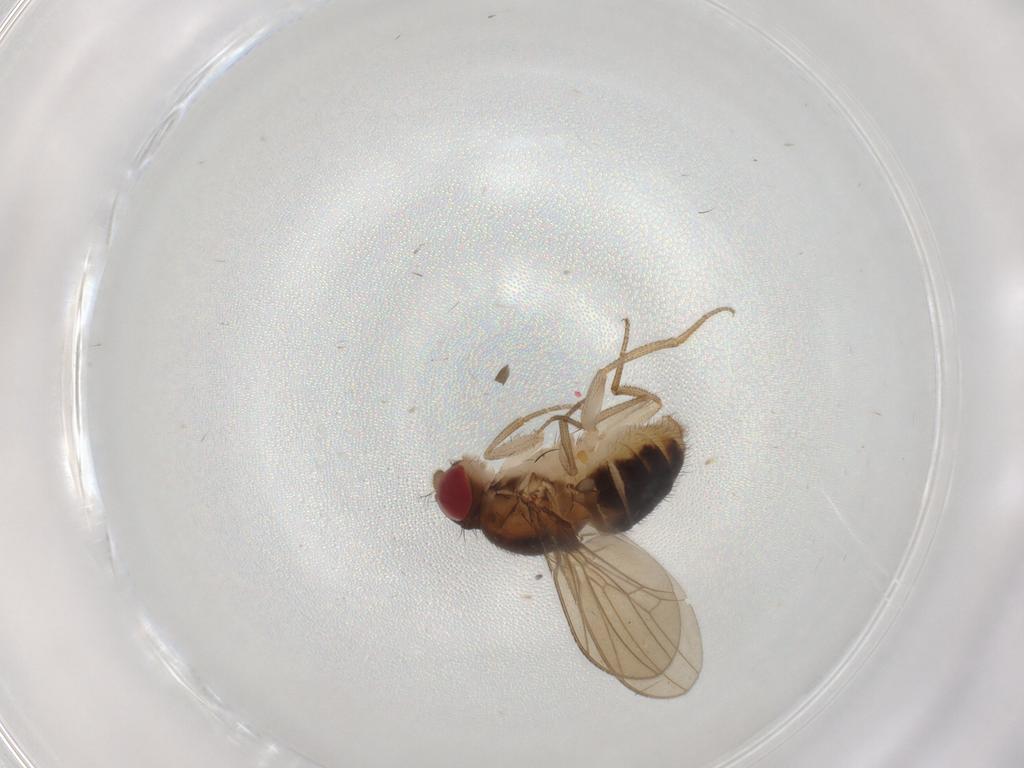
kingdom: Animalia
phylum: Arthropoda
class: Insecta
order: Diptera
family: Drosophilidae
